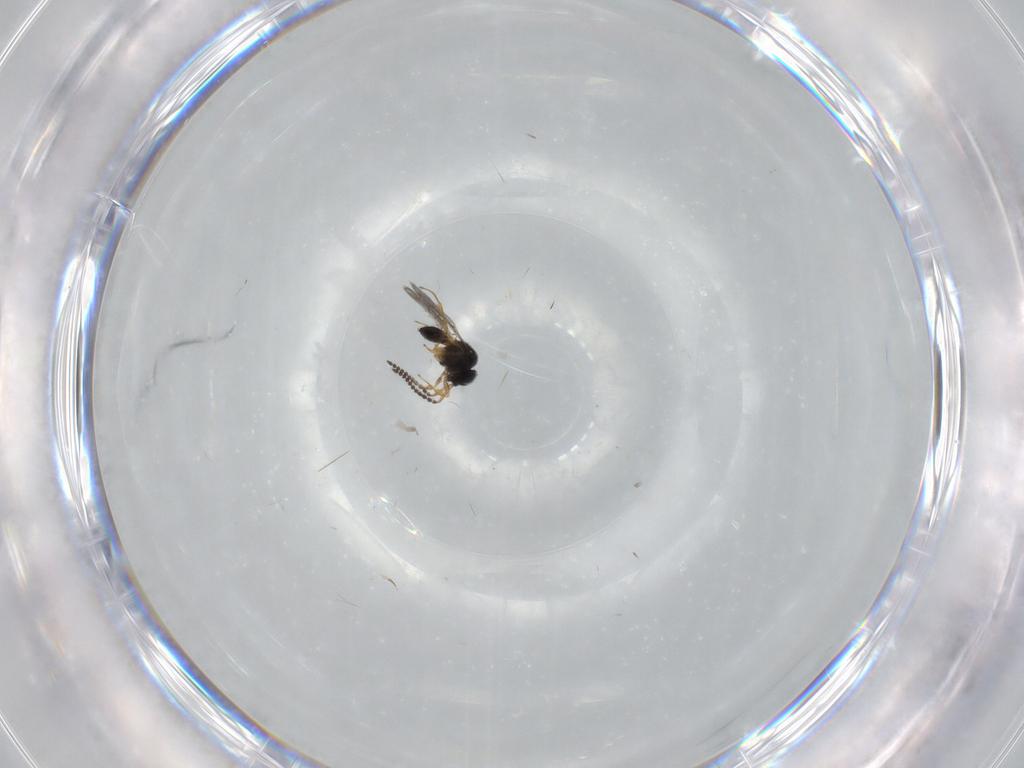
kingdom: Animalia
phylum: Arthropoda
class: Insecta
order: Hymenoptera
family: Scelionidae
